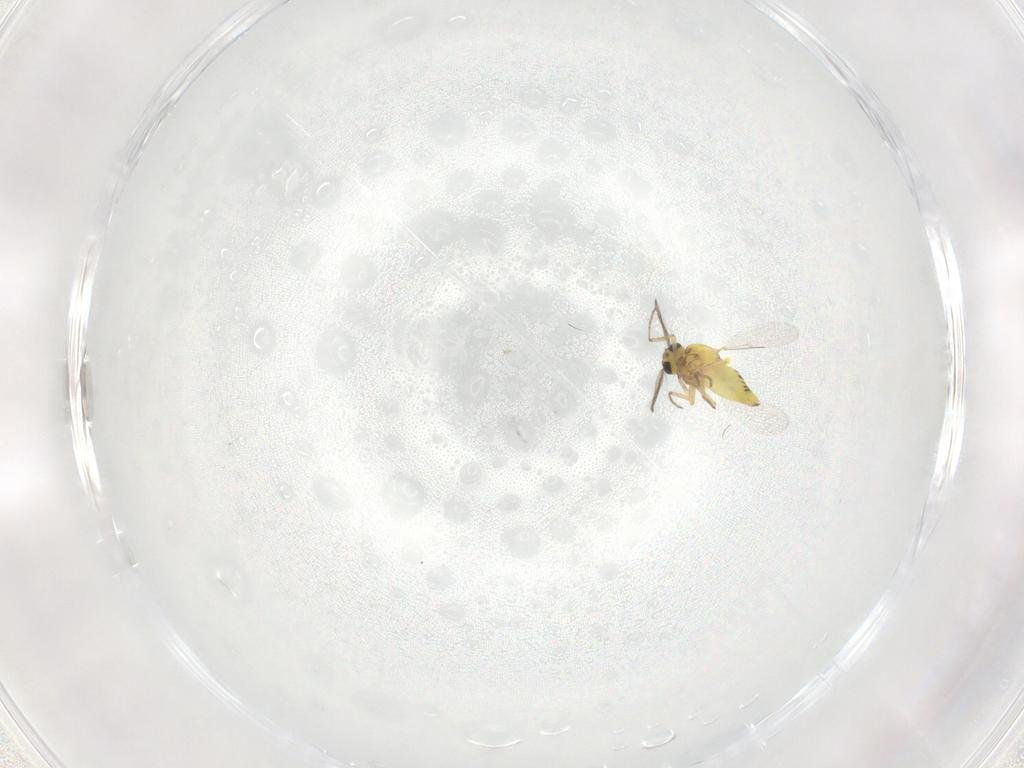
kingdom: Animalia
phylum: Arthropoda
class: Insecta
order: Diptera
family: Ceratopogonidae
